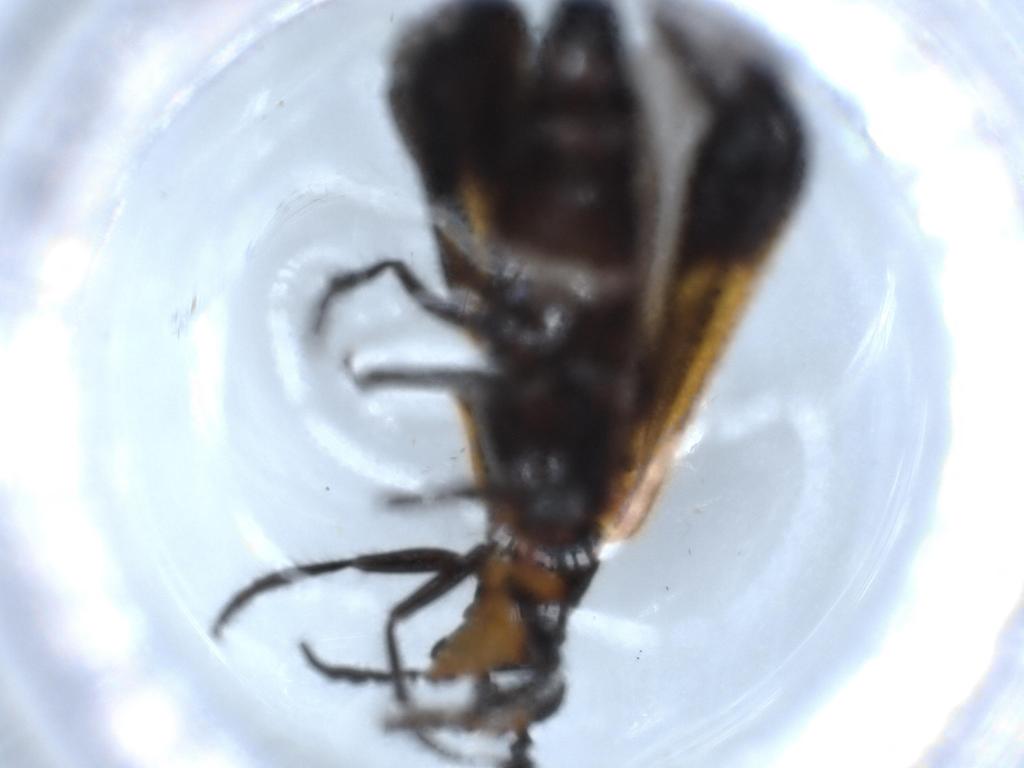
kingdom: Animalia
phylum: Arthropoda
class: Insecta
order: Coleoptera
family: Cleridae
